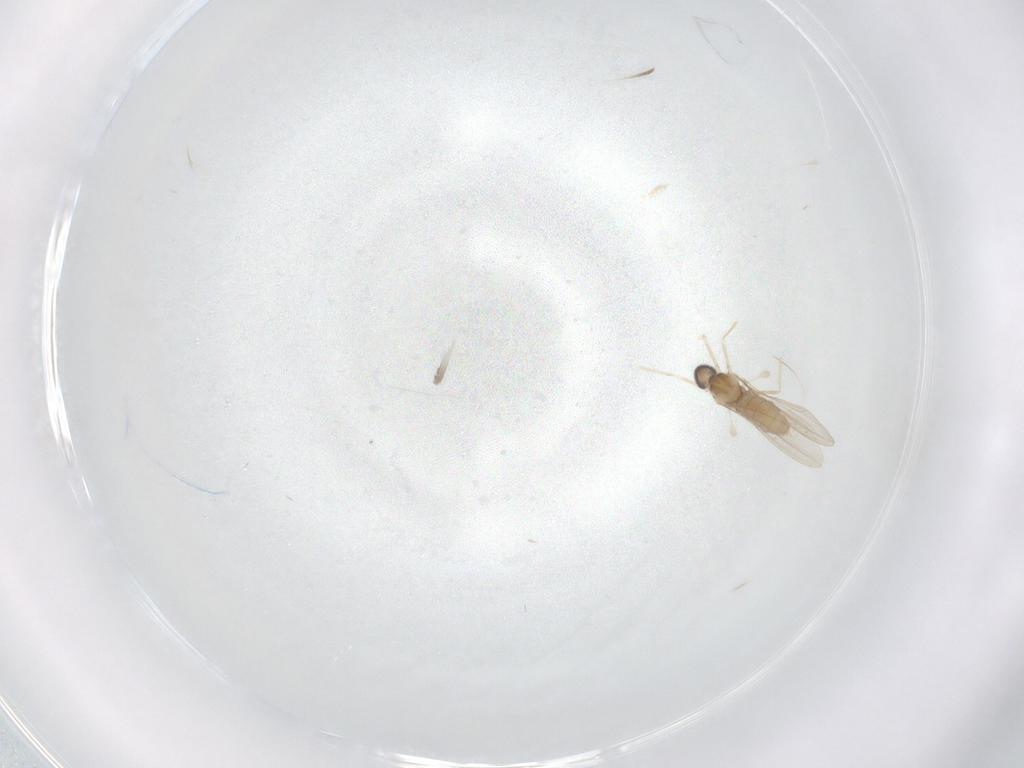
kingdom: Animalia
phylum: Arthropoda
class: Insecta
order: Diptera
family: Cecidomyiidae
